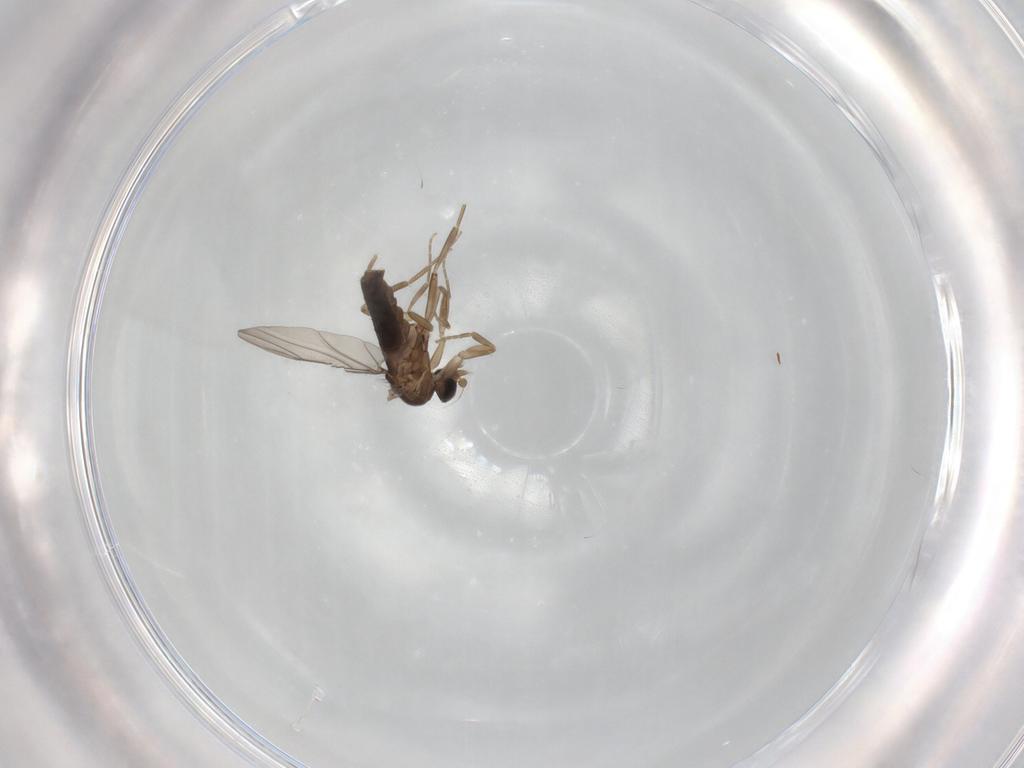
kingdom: Animalia
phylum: Arthropoda
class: Insecta
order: Diptera
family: Phoridae
